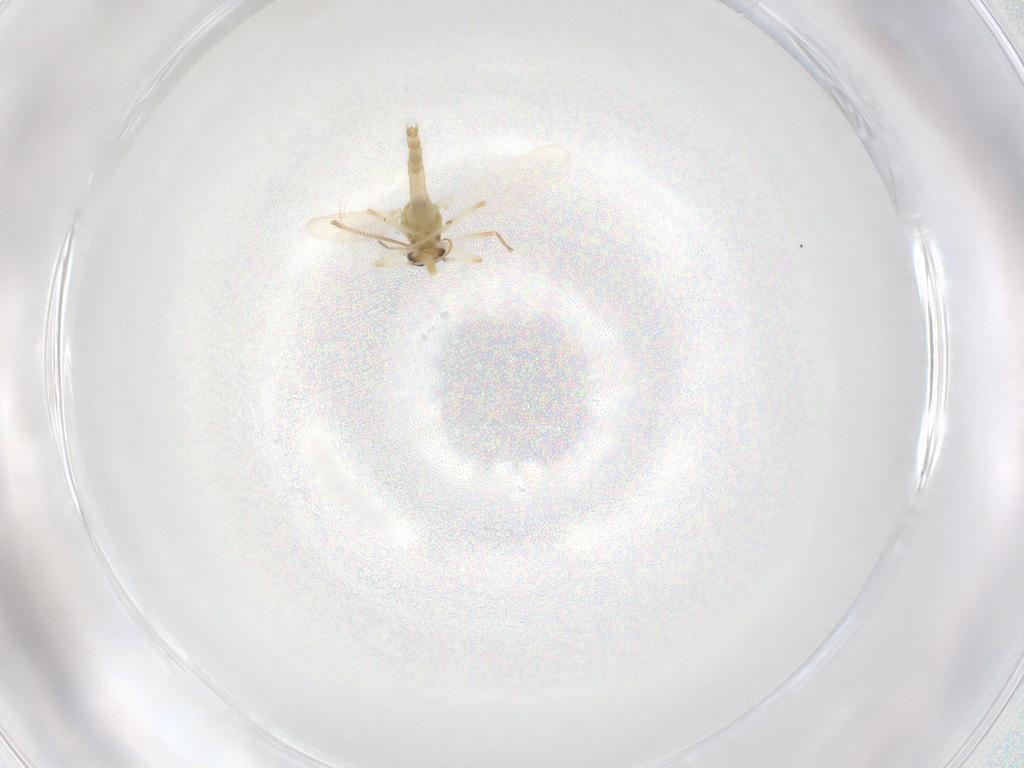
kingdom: Animalia
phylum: Arthropoda
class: Insecta
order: Diptera
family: Chironomidae
